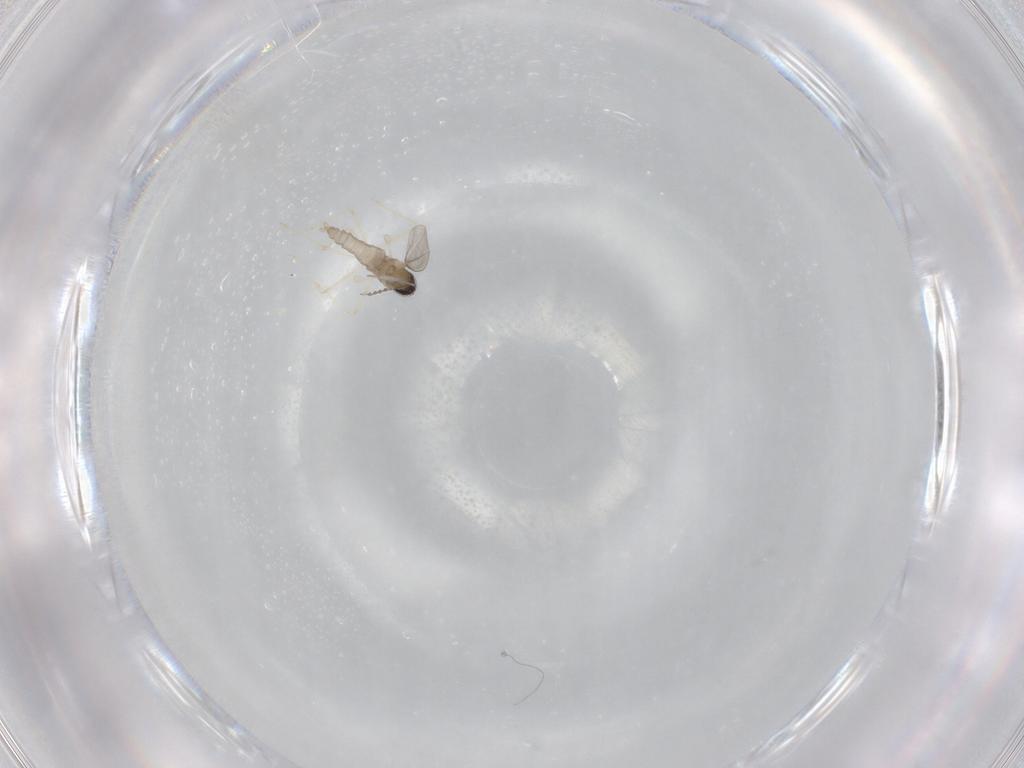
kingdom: Animalia
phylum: Arthropoda
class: Insecta
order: Diptera
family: Cecidomyiidae
